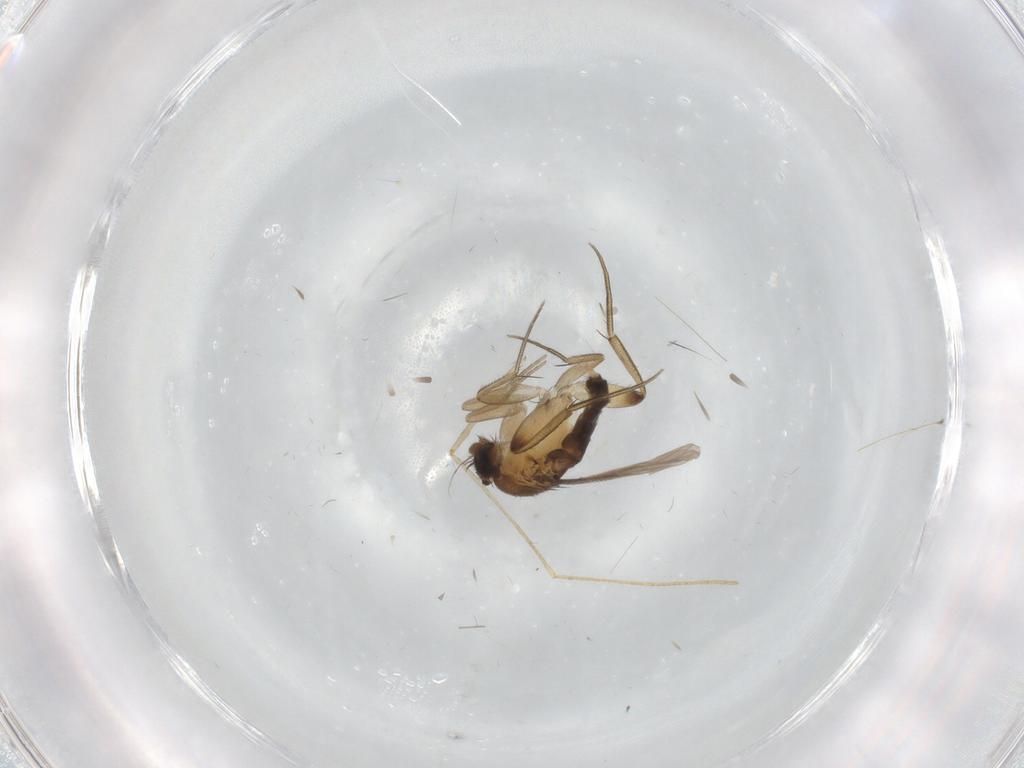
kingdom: Animalia
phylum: Arthropoda
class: Insecta
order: Diptera
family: Phoridae
